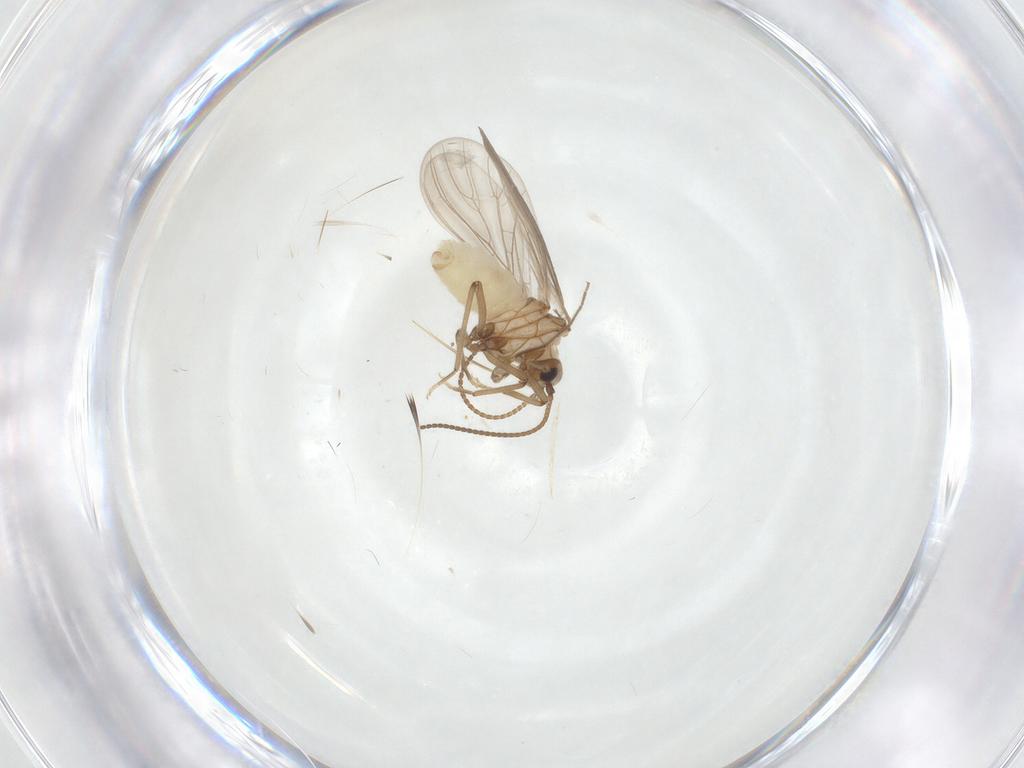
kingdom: Animalia
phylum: Arthropoda
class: Insecta
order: Neuroptera
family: Coniopterygidae
